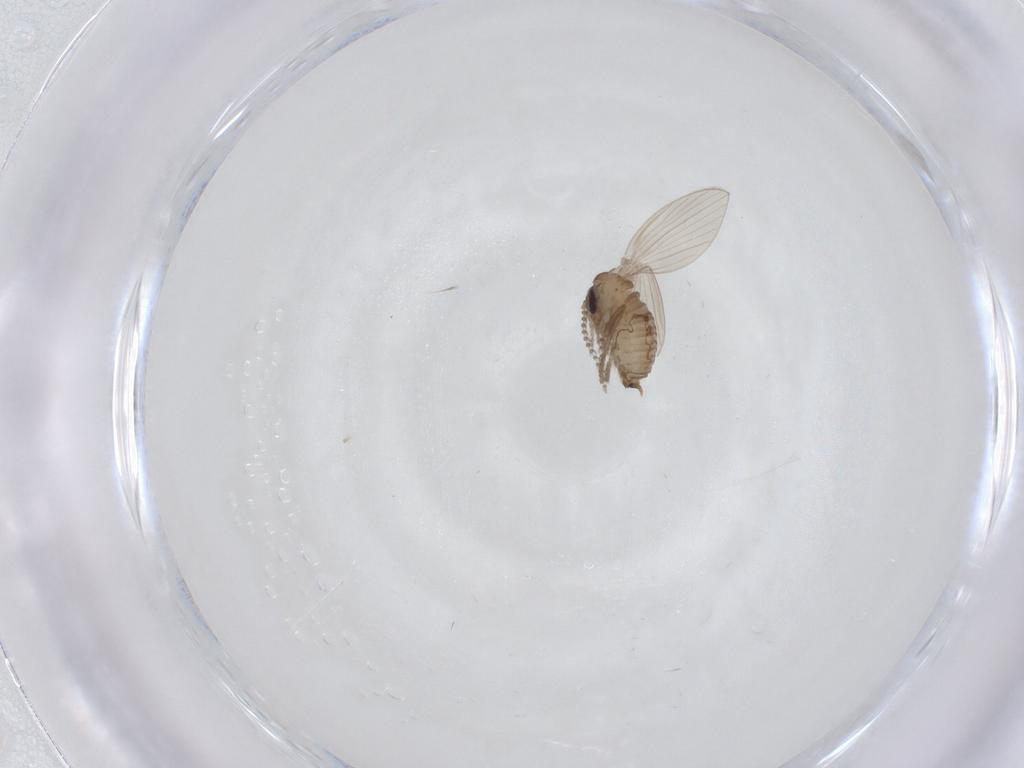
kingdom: Animalia
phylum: Arthropoda
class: Insecta
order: Diptera
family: Psychodidae
